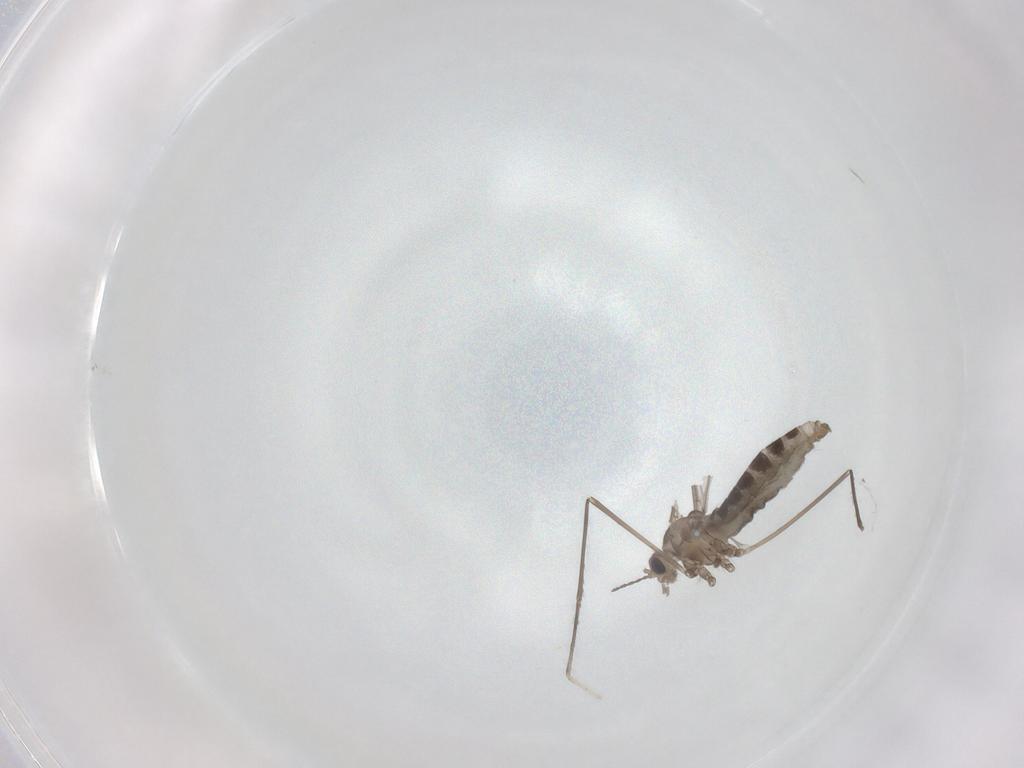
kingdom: Animalia
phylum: Arthropoda
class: Insecta
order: Diptera
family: Cecidomyiidae
